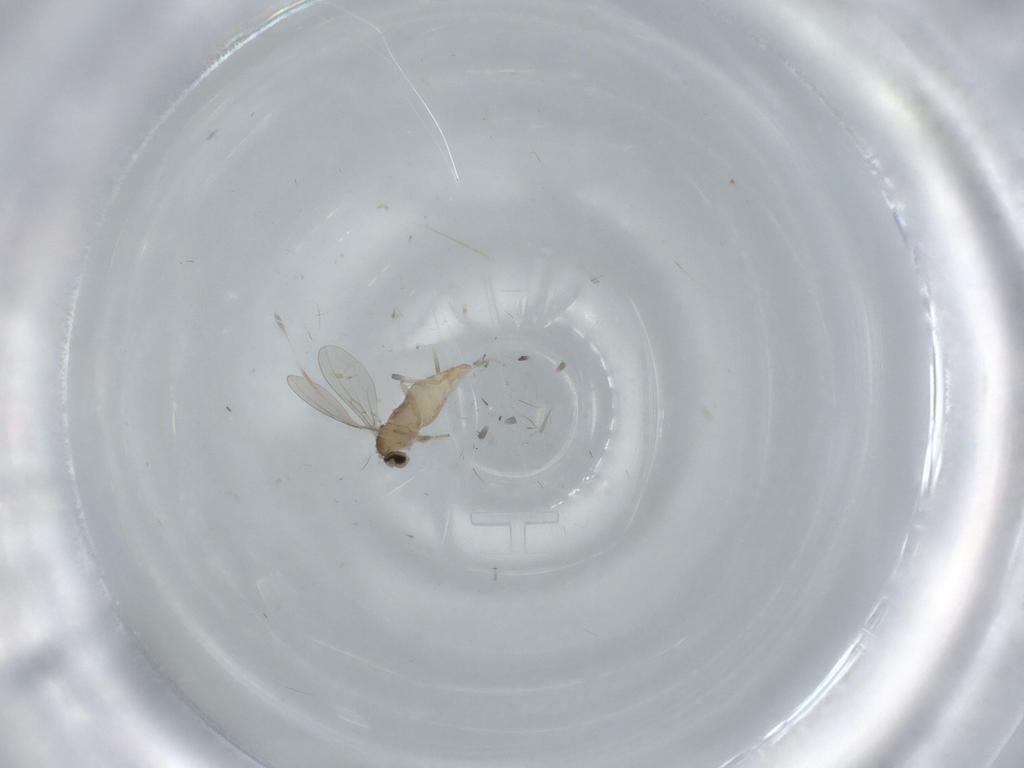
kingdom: Animalia
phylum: Arthropoda
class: Insecta
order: Diptera
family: Cecidomyiidae
